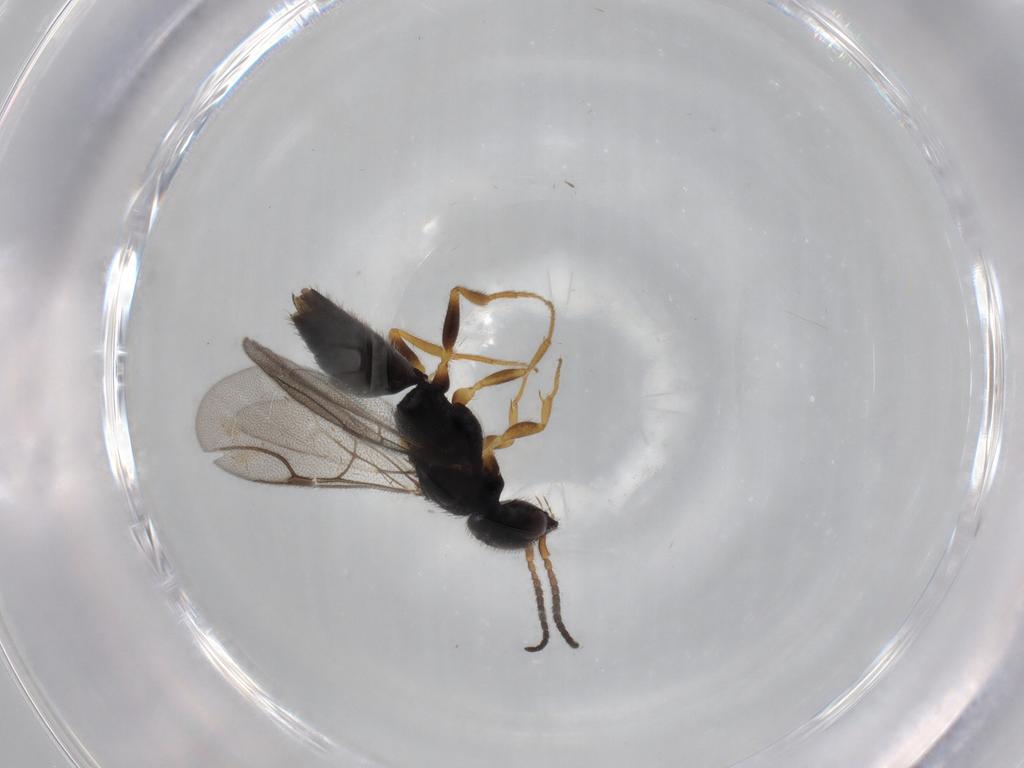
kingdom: Animalia
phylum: Arthropoda
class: Insecta
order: Hymenoptera
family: Bethylidae
